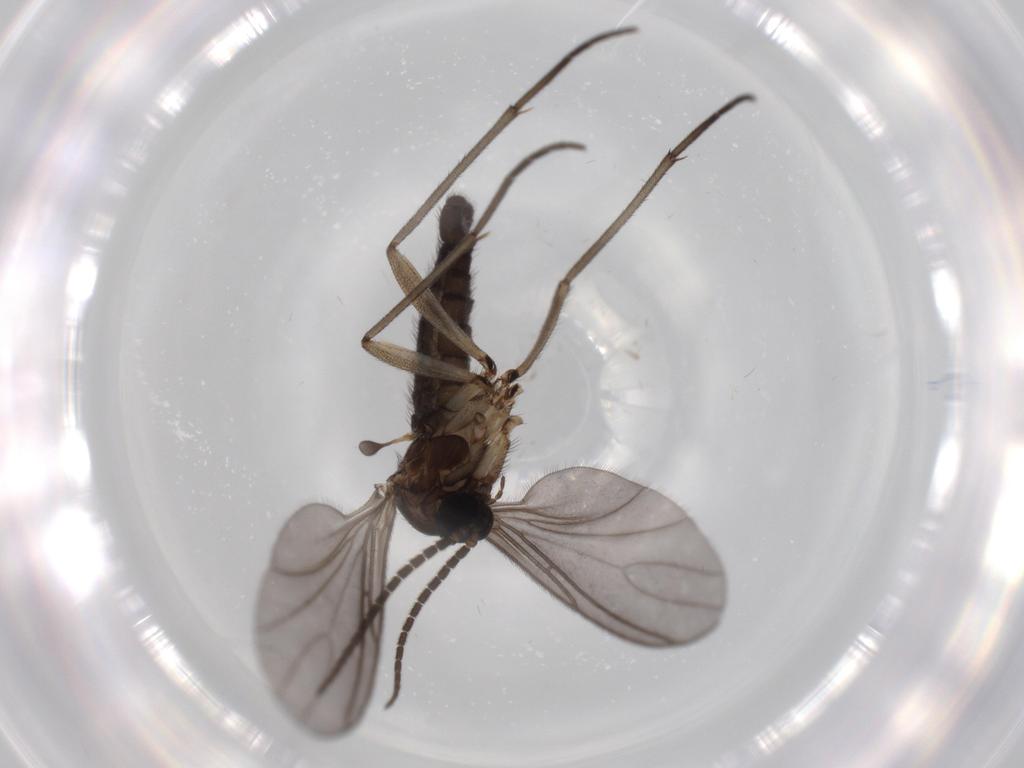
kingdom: Animalia
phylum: Arthropoda
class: Insecta
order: Diptera
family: Sciaridae
